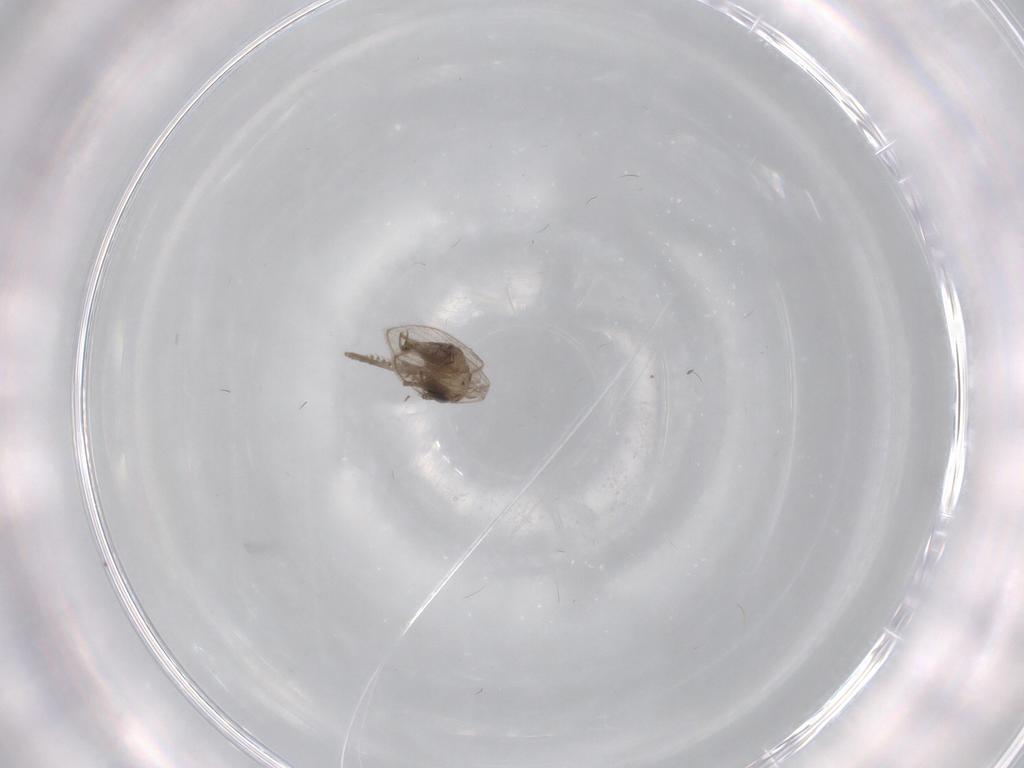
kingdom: Animalia
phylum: Arthropoda
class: Insecta
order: Diptera
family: Psychodidae
